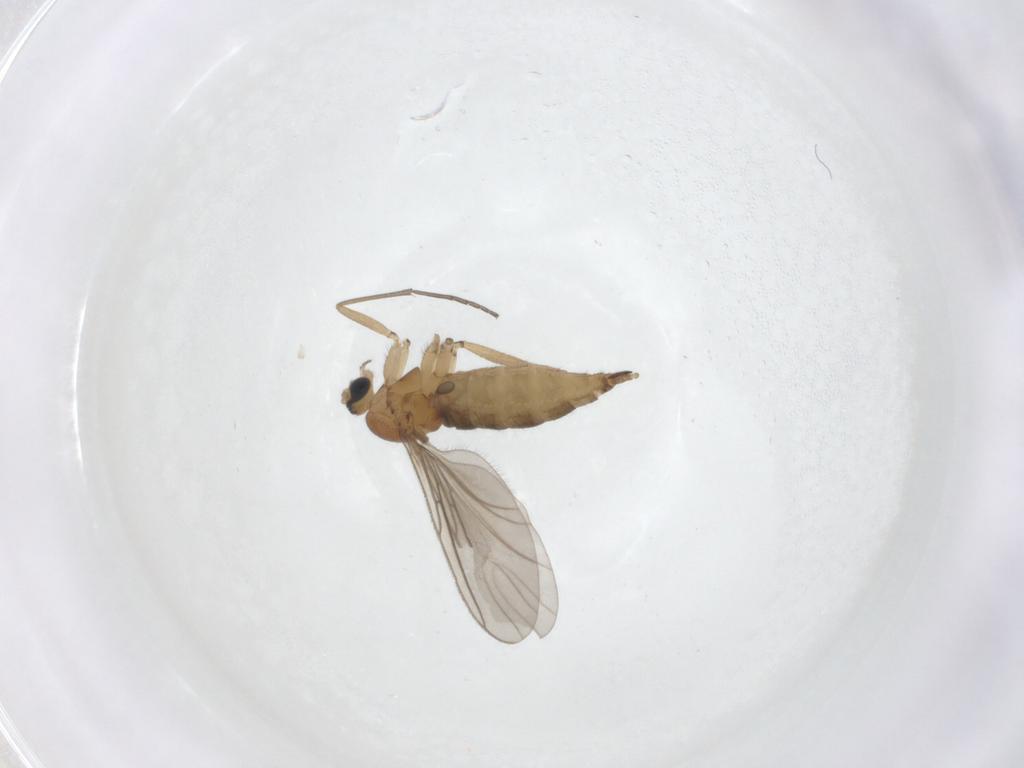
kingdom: Animalia
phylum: Arthropoda
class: Insecta
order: Diptera
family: Sciaridae
